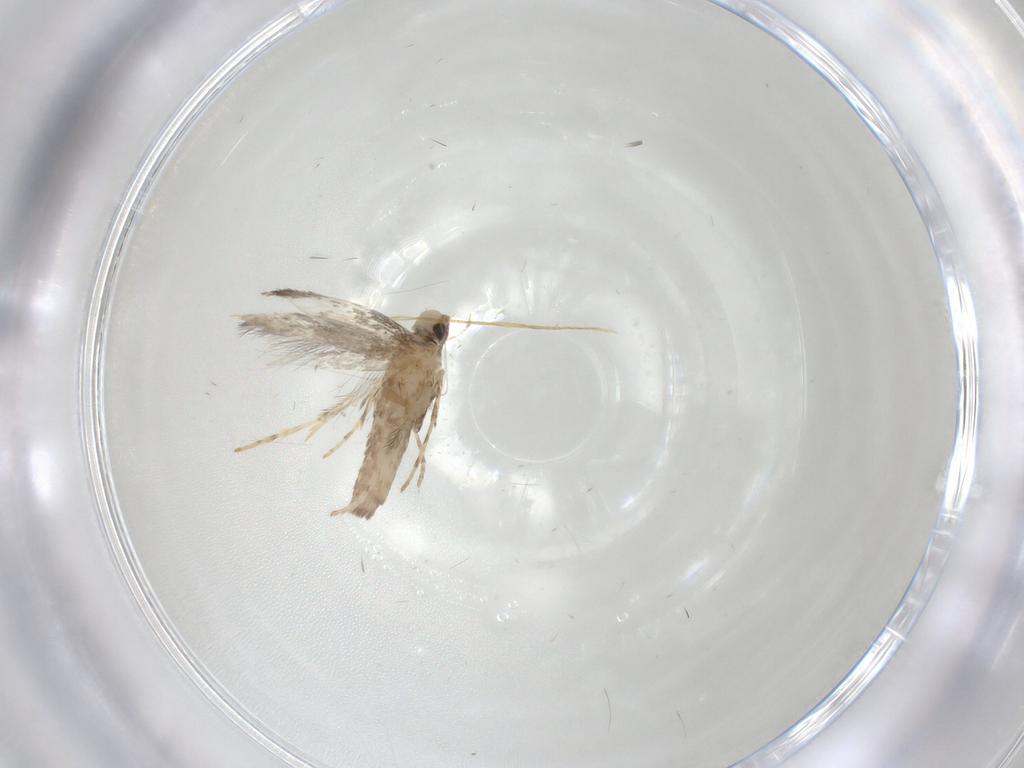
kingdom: Animalia
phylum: Arthropoda
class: Insecta
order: Lepidoptera
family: Gracillariidae
